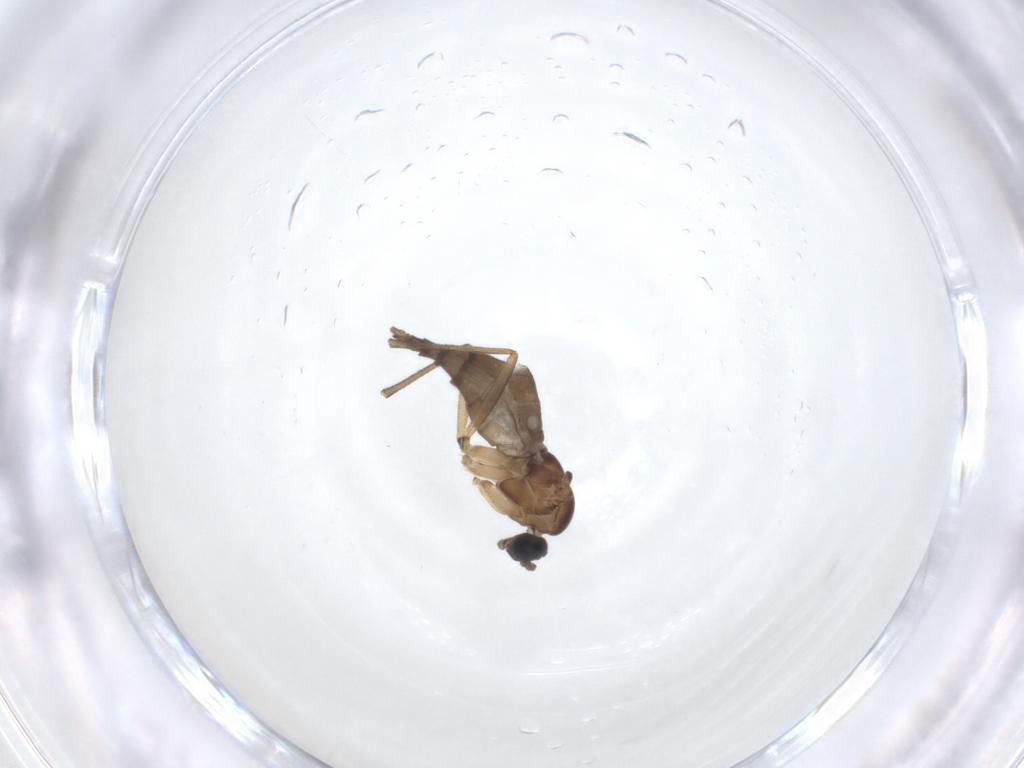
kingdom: Animalia
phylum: Arthropoda
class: Insecta
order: Diptera
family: Sciaridae
